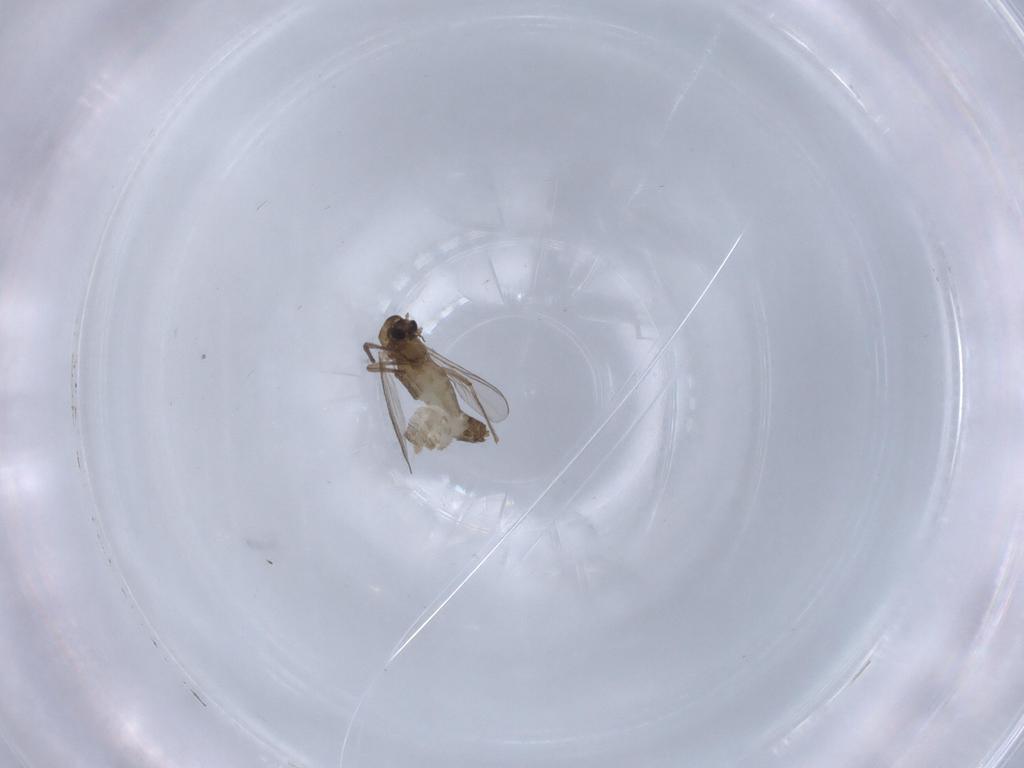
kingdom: Animalia
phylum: Arthropoda
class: Insecta
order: Diptera
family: Chironomidae
